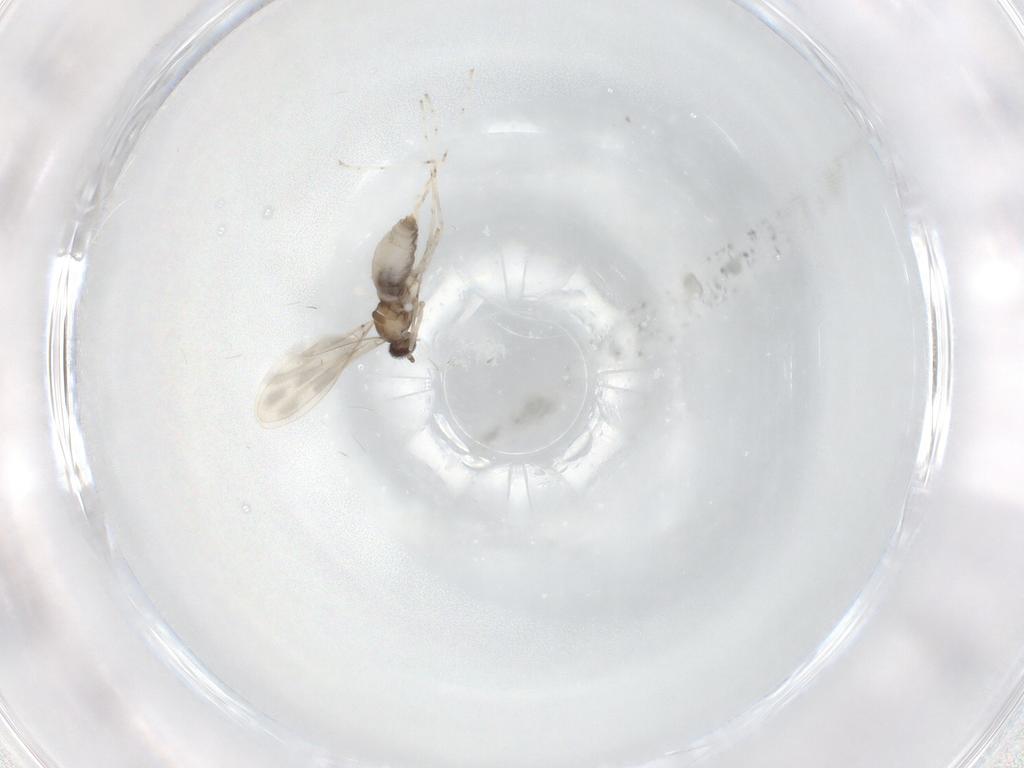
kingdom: Animalia
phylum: Arthropoda
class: Insecta
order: Diptera
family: Cecidomyiidae
